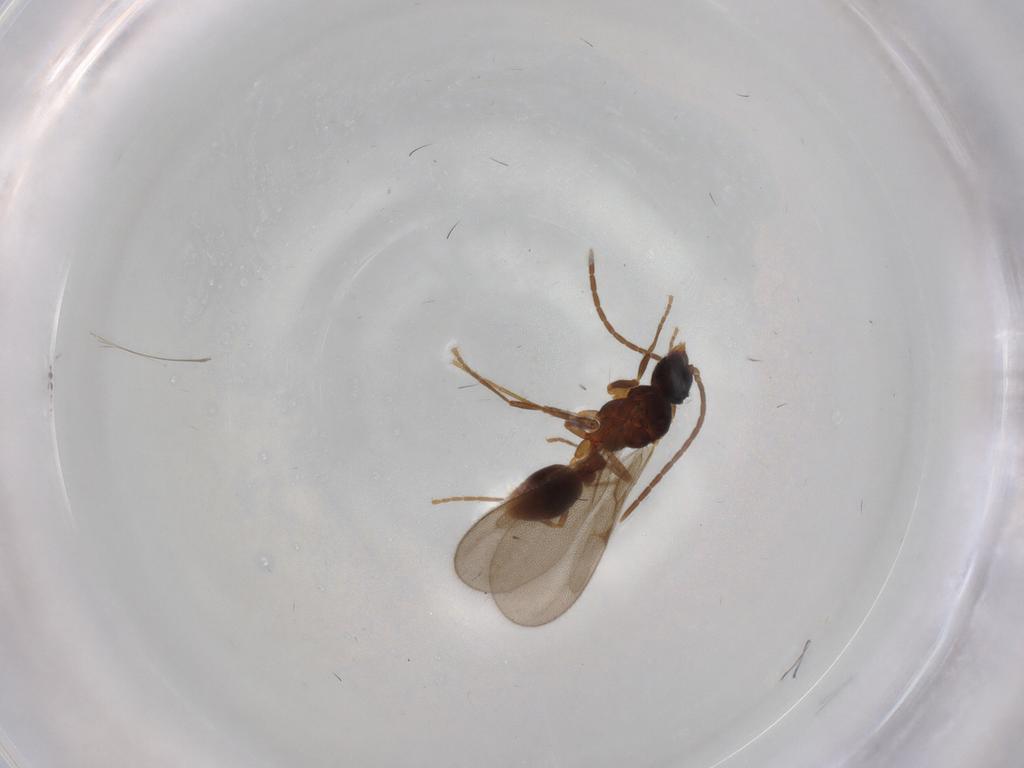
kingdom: Animalia
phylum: Arthropoda
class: Insecta
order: Hymenoptera
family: Formicidae
